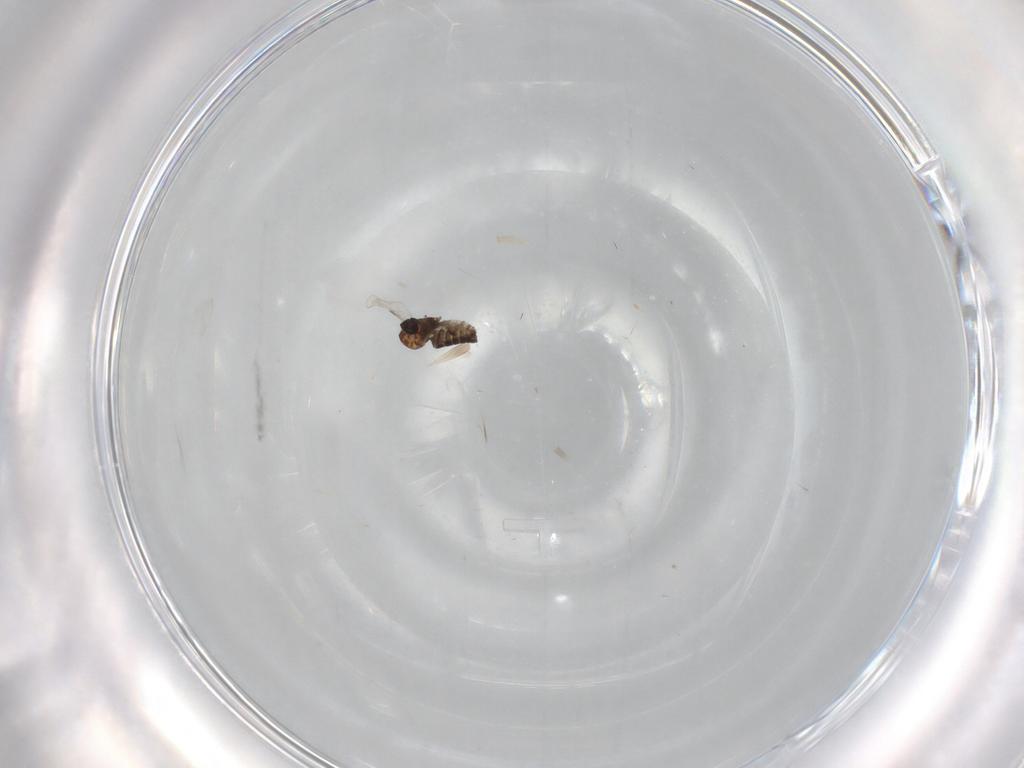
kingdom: Animalia
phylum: Arthropoda
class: Insecta
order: Diptera
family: Ceratopogonidae
